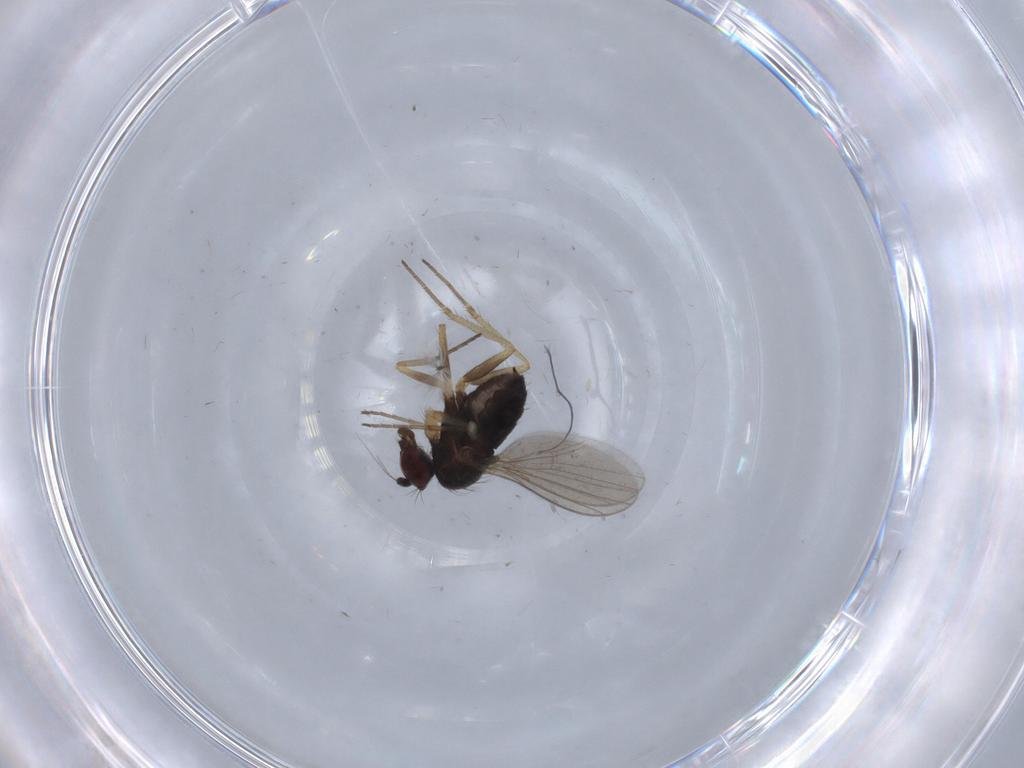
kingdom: Animalia
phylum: Arthropoda
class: Insecta
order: Diptera
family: Dolichopodidae
